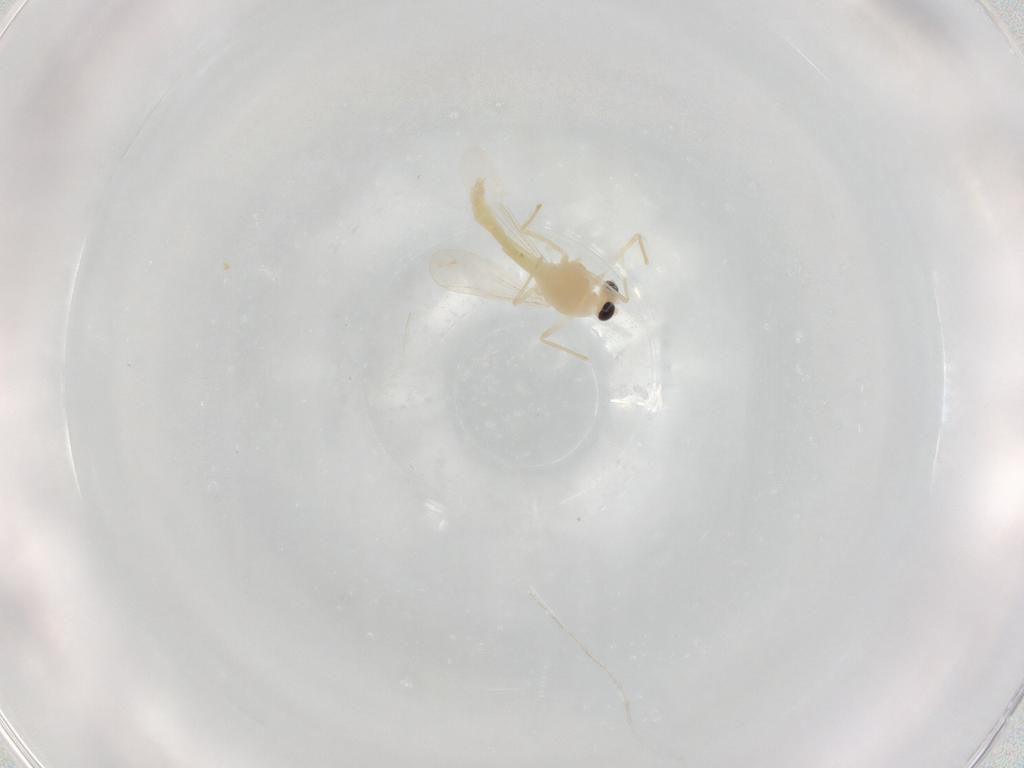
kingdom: Animalia
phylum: Arthropoda
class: Insecta
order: Diptera
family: Chironomidae
